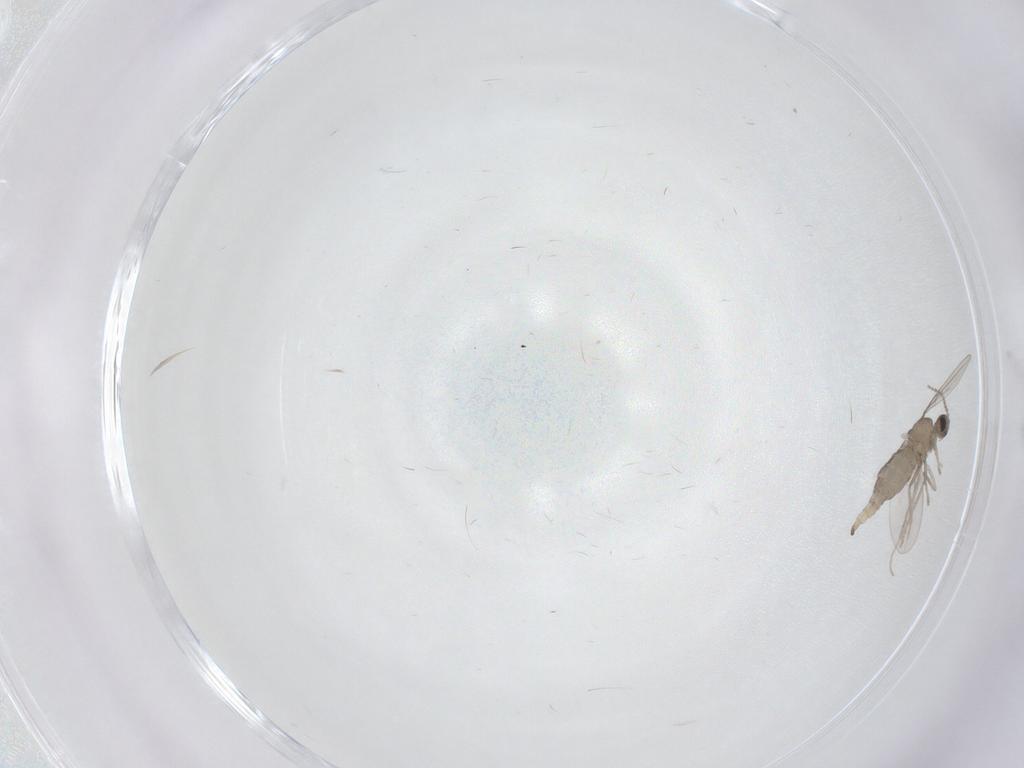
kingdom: Animalia
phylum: Arthropoda
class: Insecta
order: Diptera
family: Cecidomyiidae
